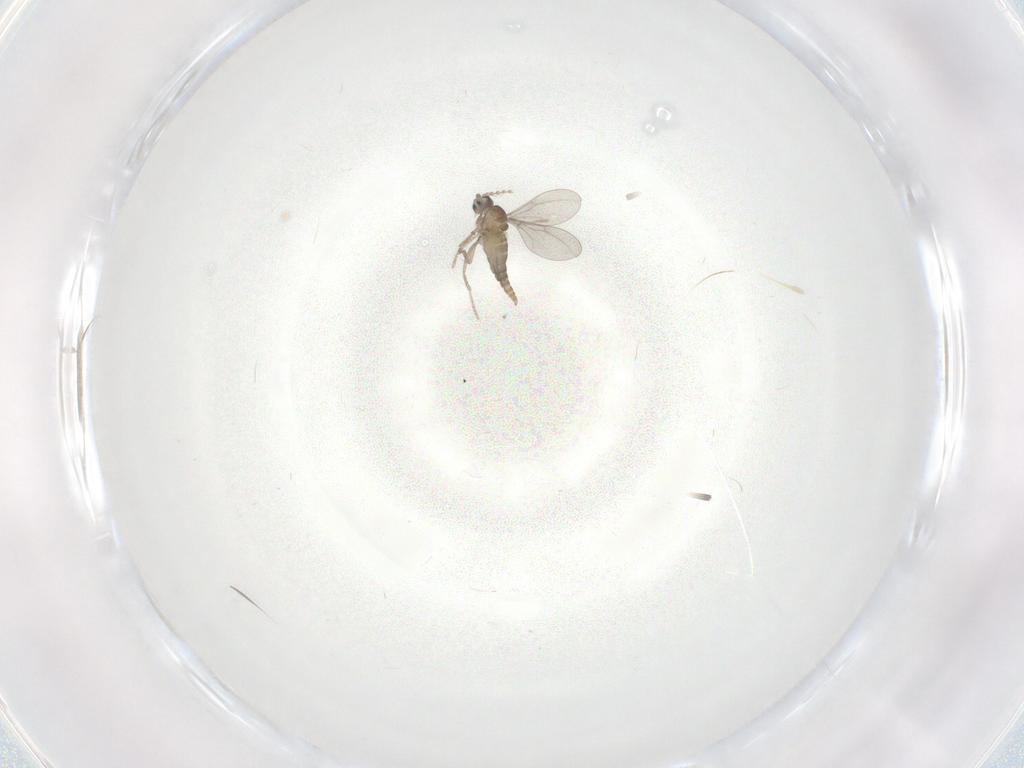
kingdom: Animalia
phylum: Arthropoda
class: Insecta
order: Diptera
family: Cecidomyiidae
